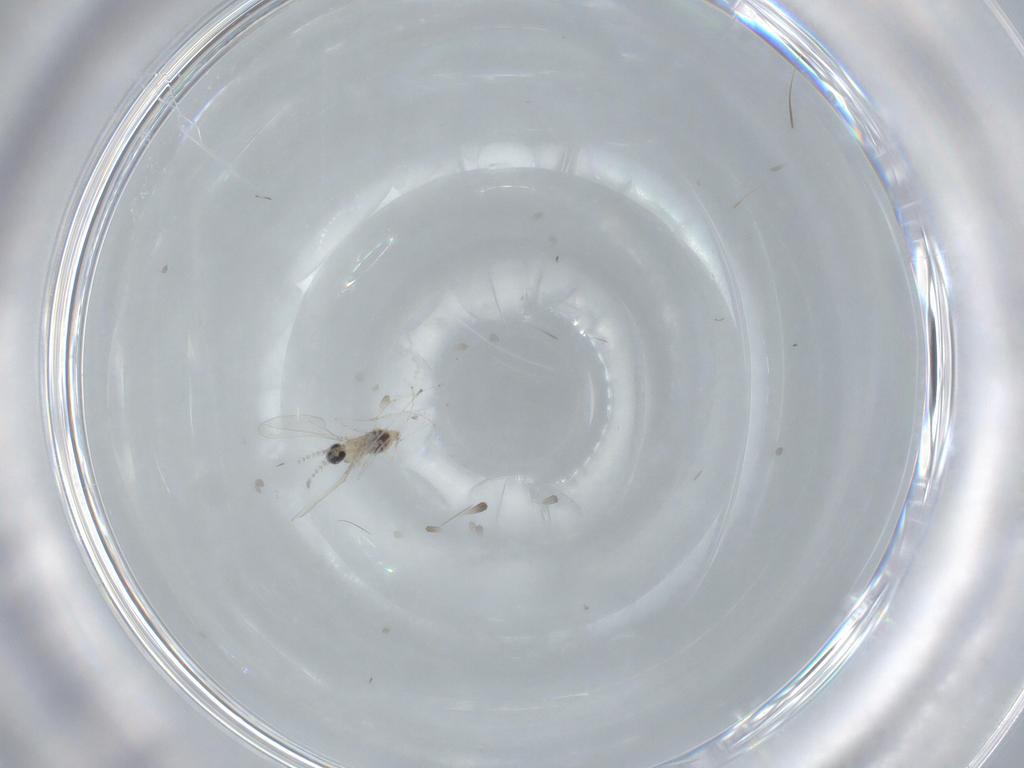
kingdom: Animalia
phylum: Arthropoda
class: Insecta
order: Diptera
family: Cecidomyiidae
